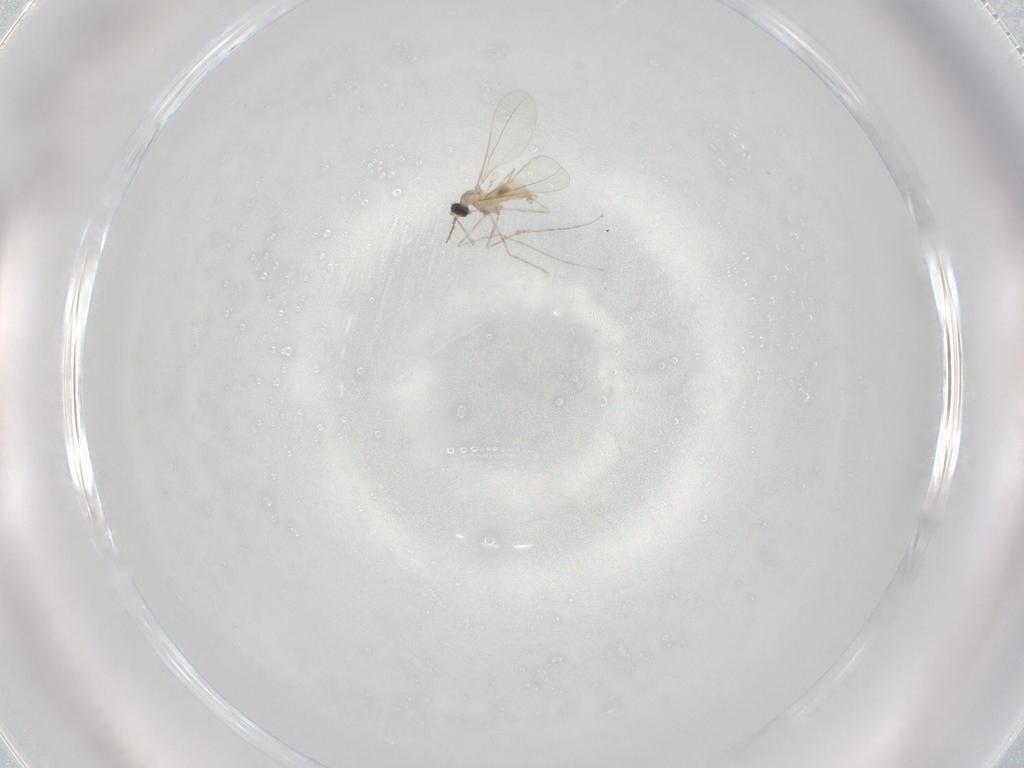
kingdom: Animalia
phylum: Arthropoda
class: Insecta
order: Diptera
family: Cecidomyiidae
